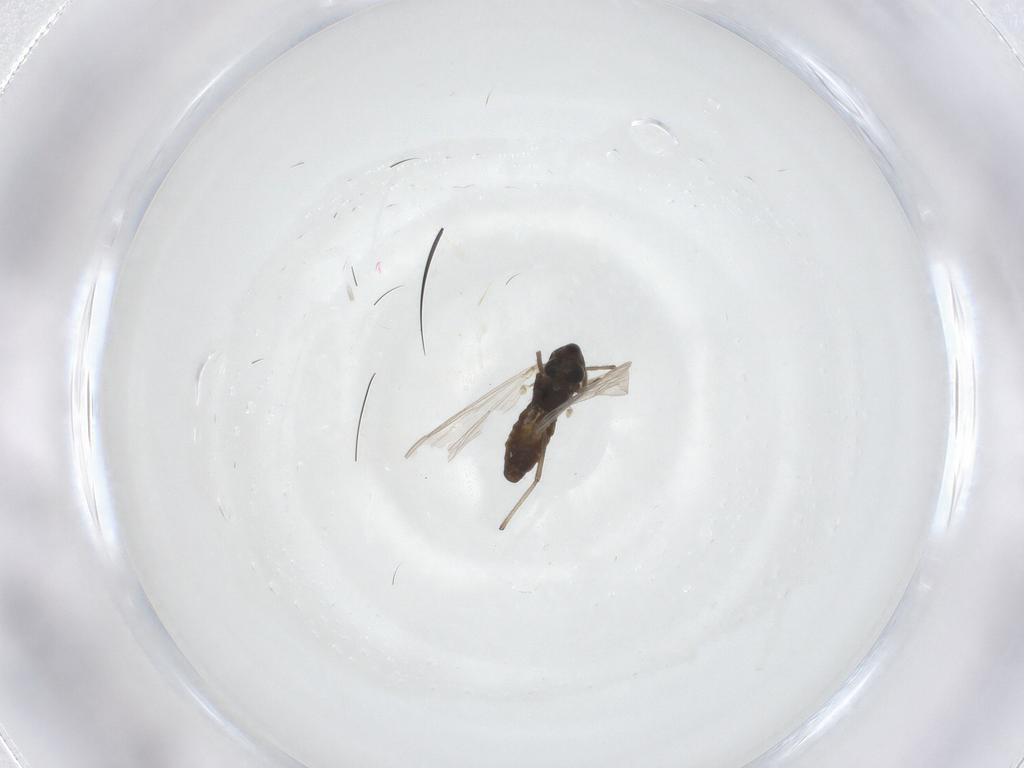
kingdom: Animalia
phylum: Arthropoda
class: Insecta
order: Diptera
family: Chironomidae
